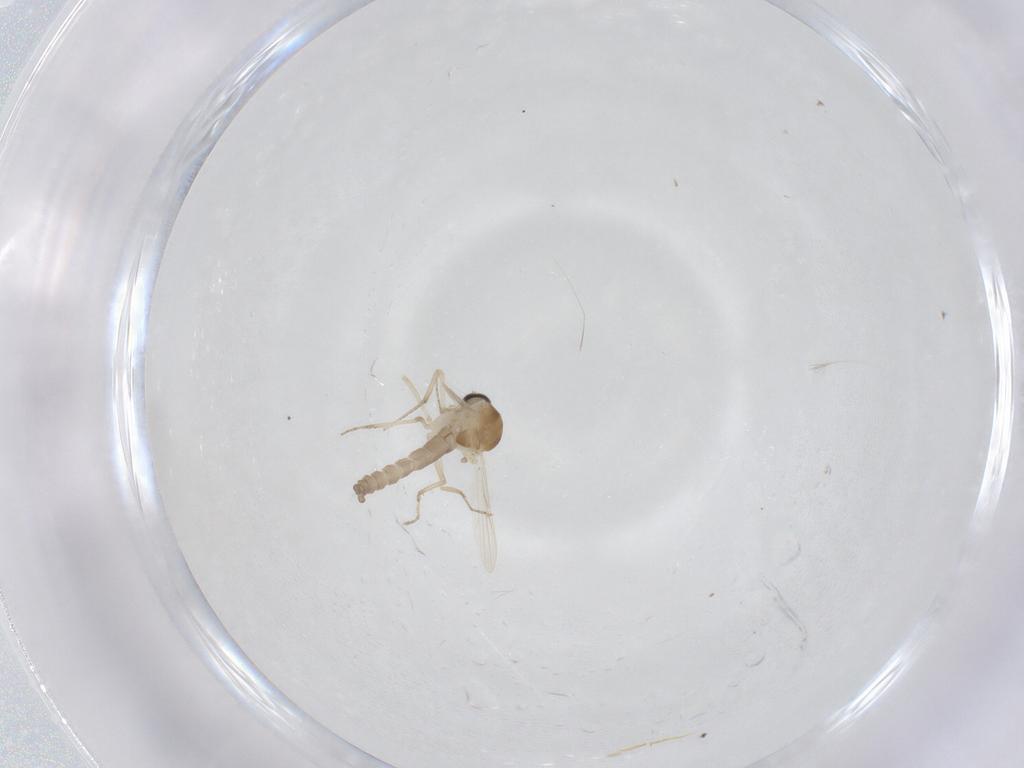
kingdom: Animalia
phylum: Arthropoda
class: Insecta
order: Diptera
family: Ceratopogonidae
